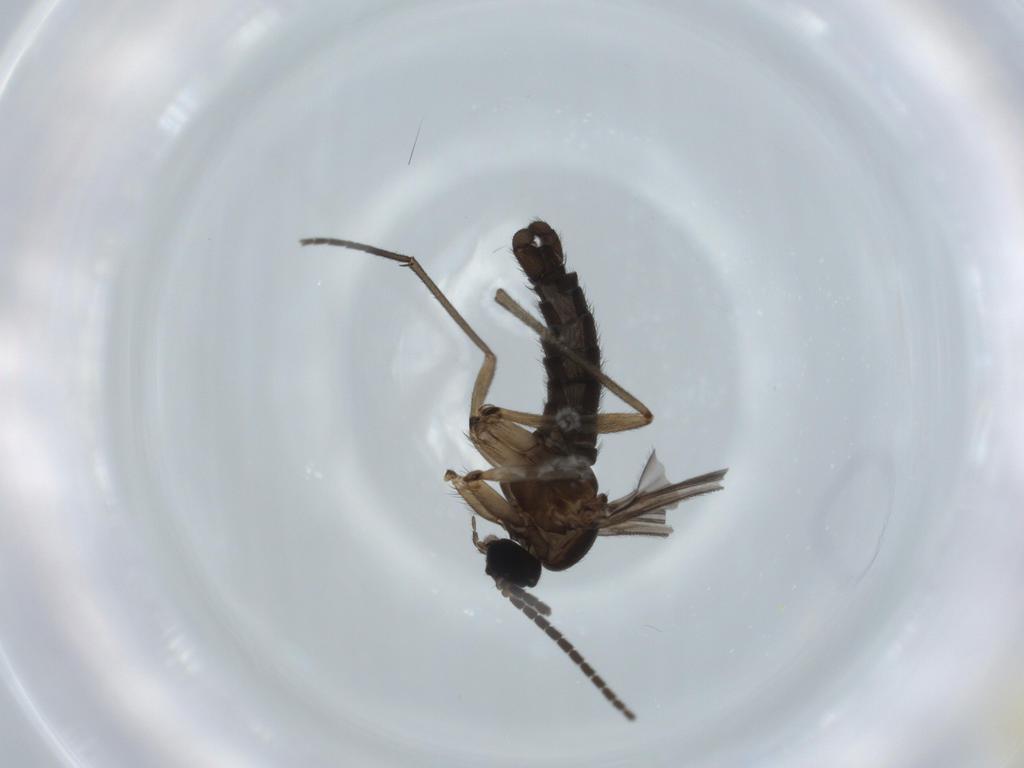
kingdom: Animalia
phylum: Arthropoda
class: Insecta
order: Diptera
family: Sciaridae
